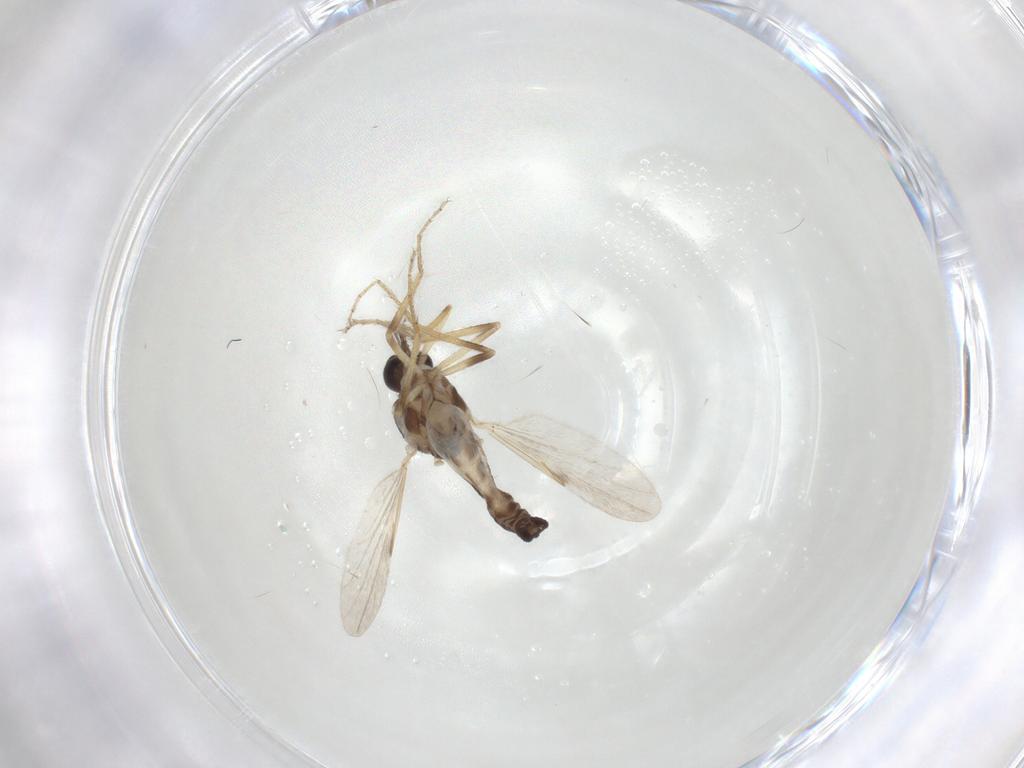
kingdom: Animalia
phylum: Arthropoda
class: Insecta
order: Diptera
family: Ceratopogonidae
